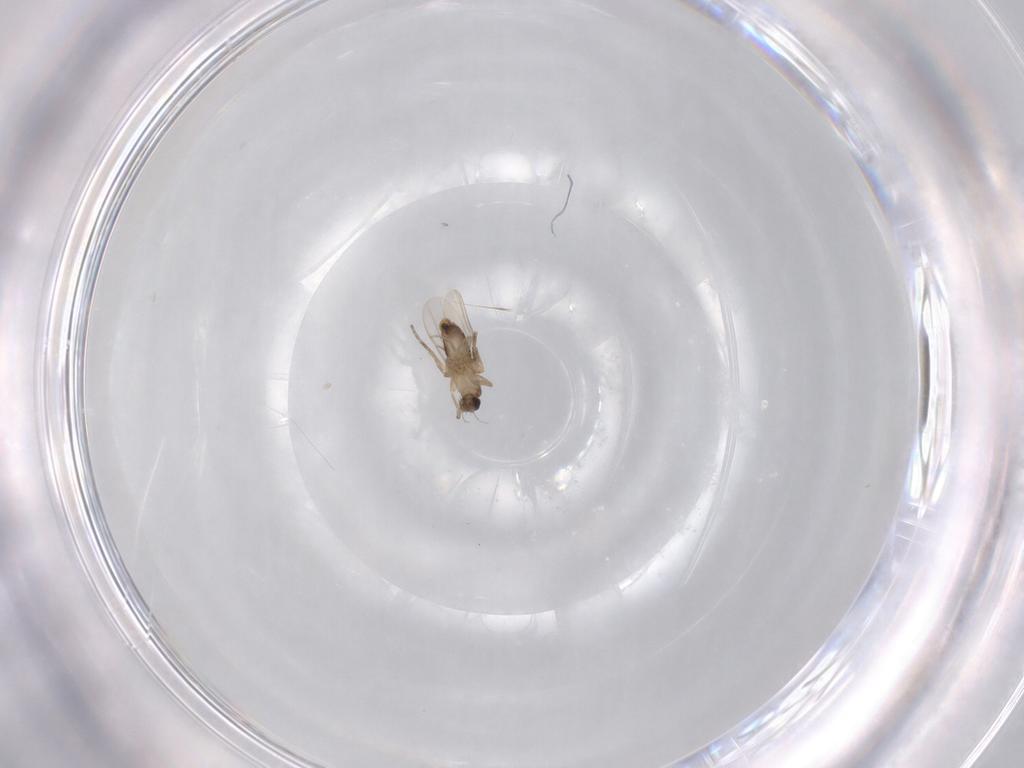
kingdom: Animalia
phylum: Arthropoda
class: Insecta
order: Diptera
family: Phoridae
